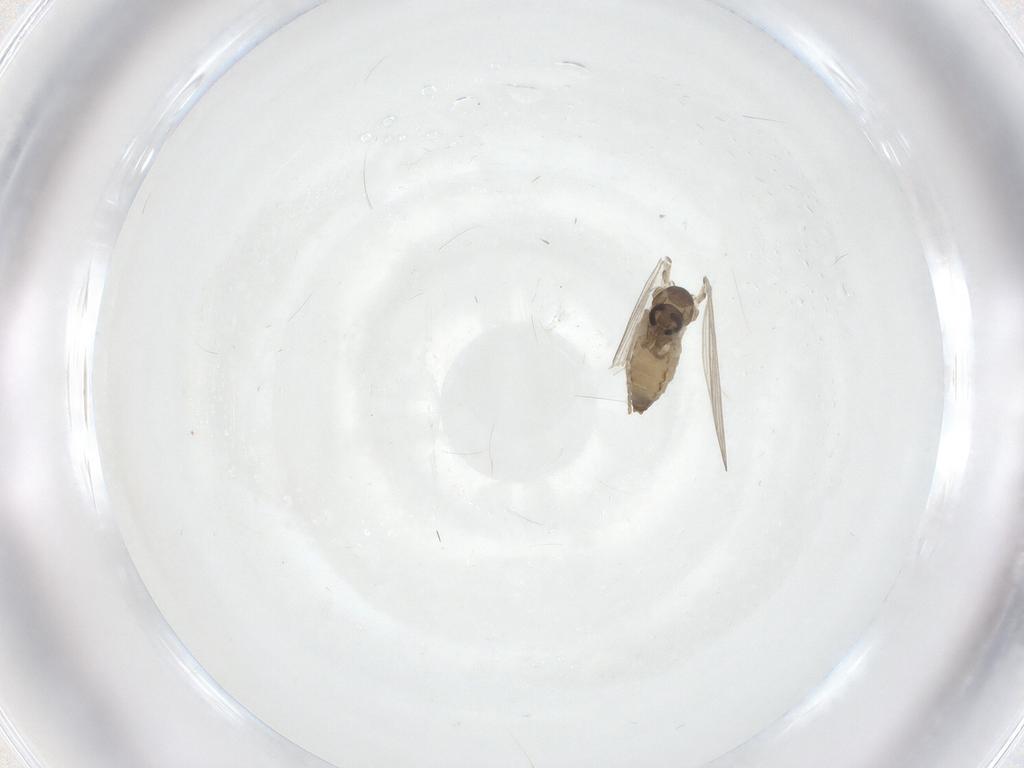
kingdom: Animalia
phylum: Arthropoda
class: Insecta
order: Diptera
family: Psychodidae
